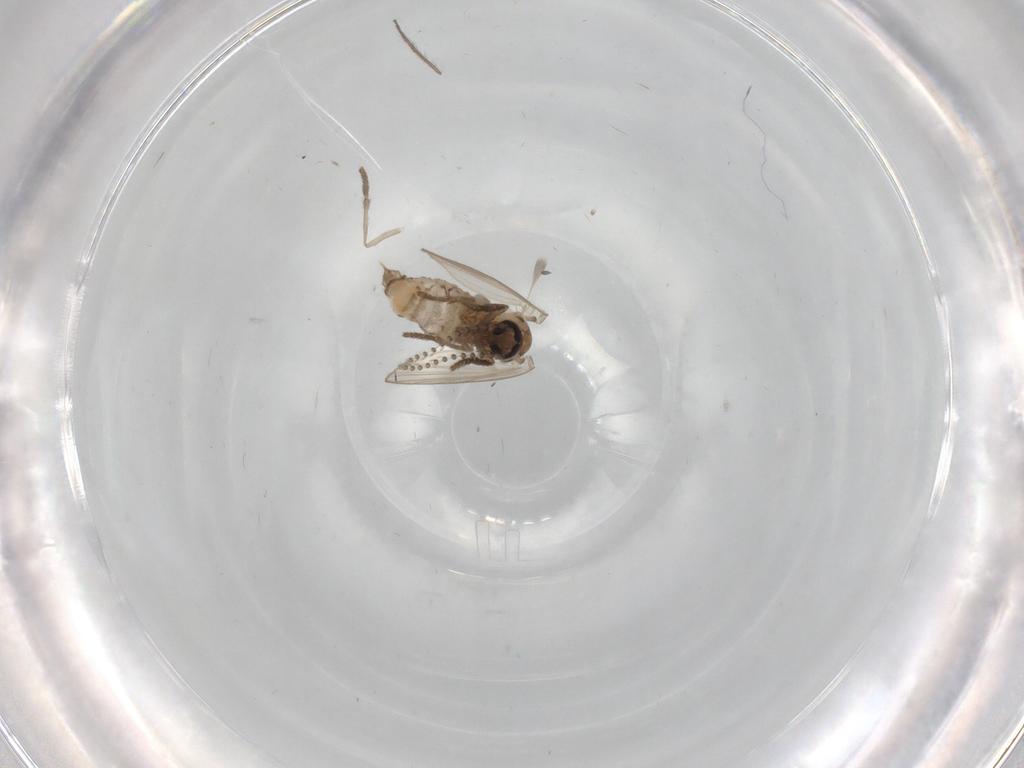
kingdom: Animalia
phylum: Arthropoda
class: Insecta
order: Diptera
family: Psychodidae
